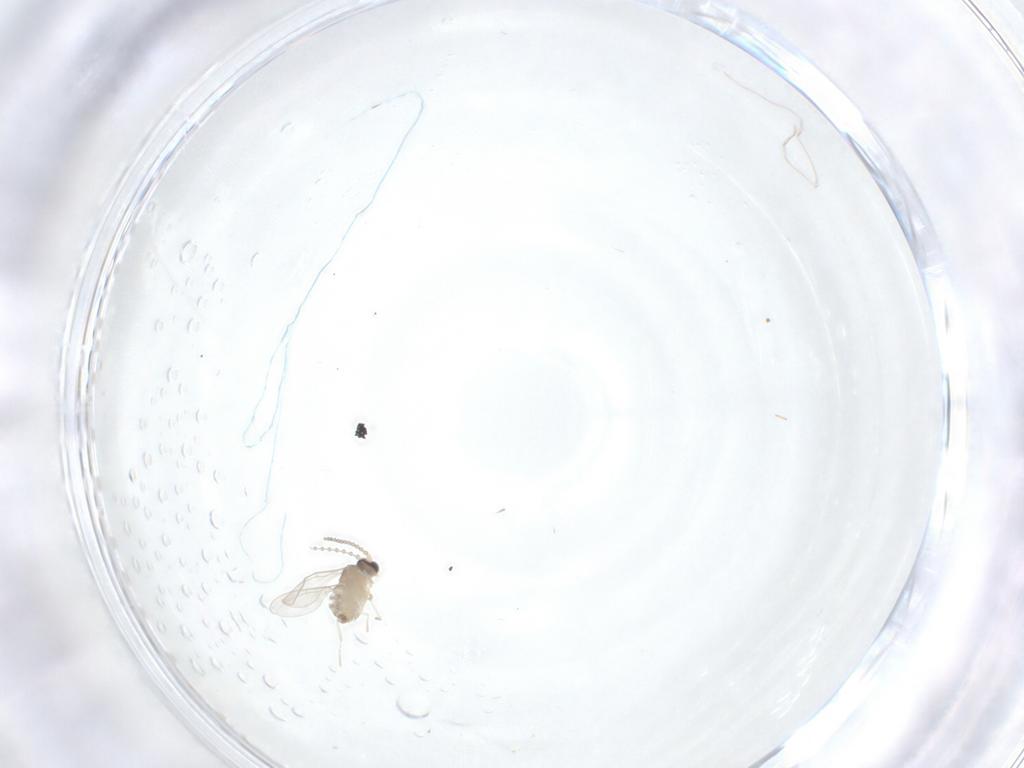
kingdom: Animalia
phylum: Arthropoda
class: Insecta
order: Diptera
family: Cecidomyiidae
